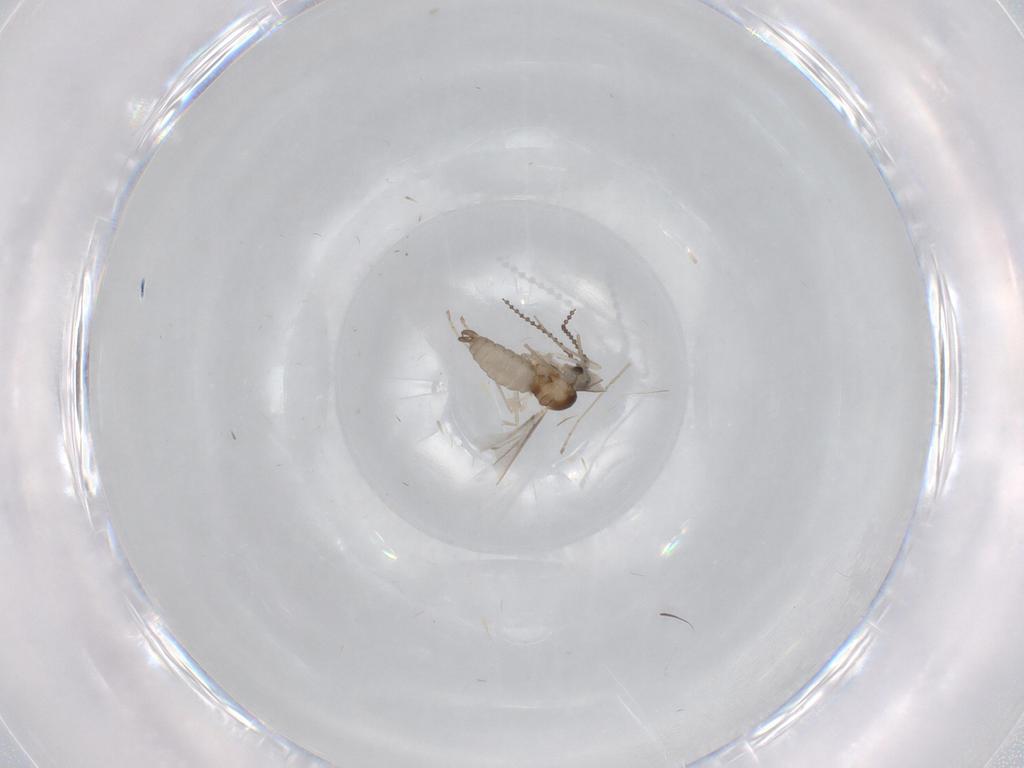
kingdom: Animalia
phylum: Arthropoda
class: Insecta
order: Diptera
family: Cecidomyiidae
